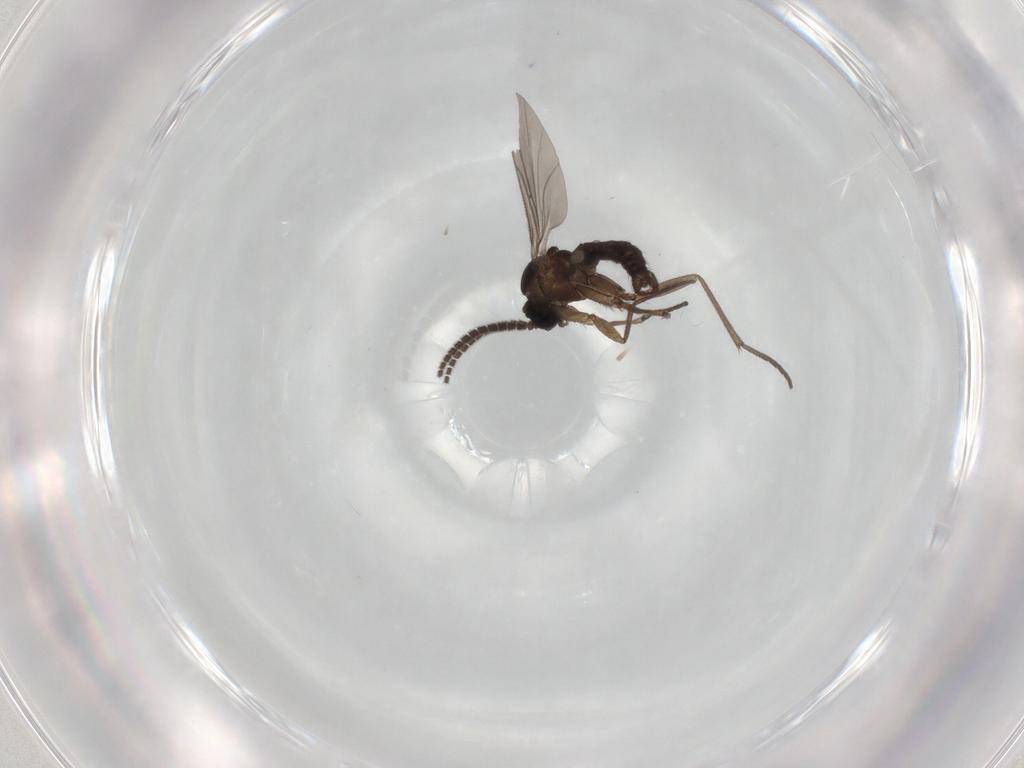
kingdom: Animalia
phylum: Arthropoda
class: Insecta
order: Diptera
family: Sciaridae
